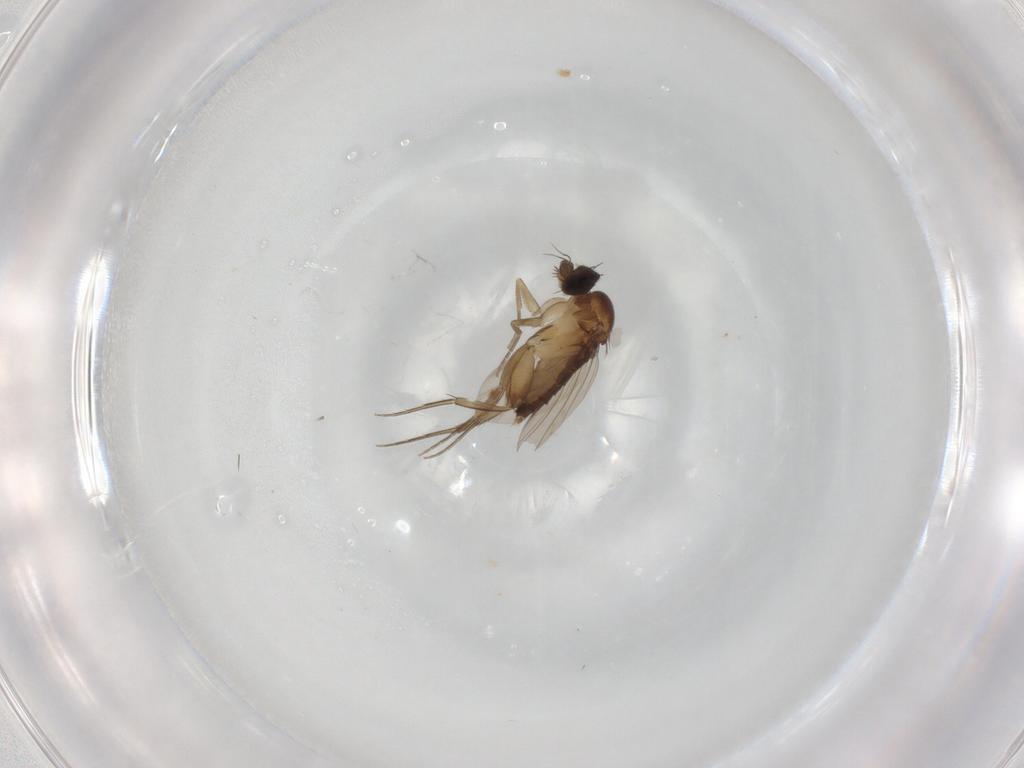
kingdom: Animalia
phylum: Arthropoda
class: Insecta
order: Diptera
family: Phoridae
